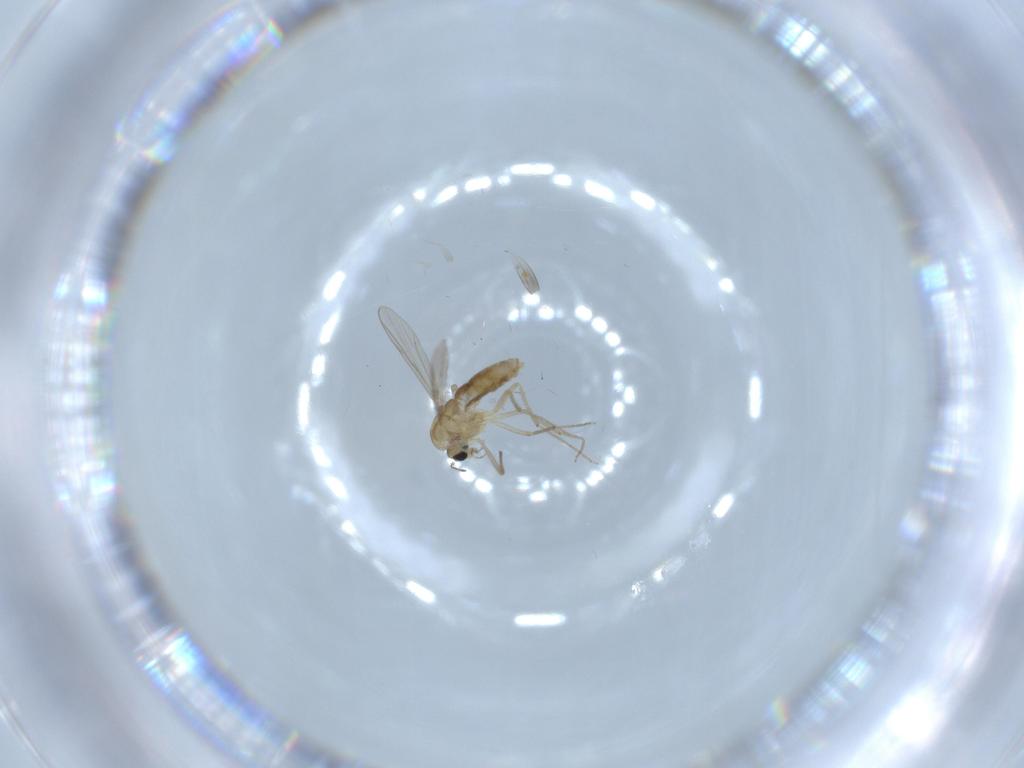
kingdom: Animalia
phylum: Arthropoda
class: Insecta
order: Diptera
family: Chironomidae
